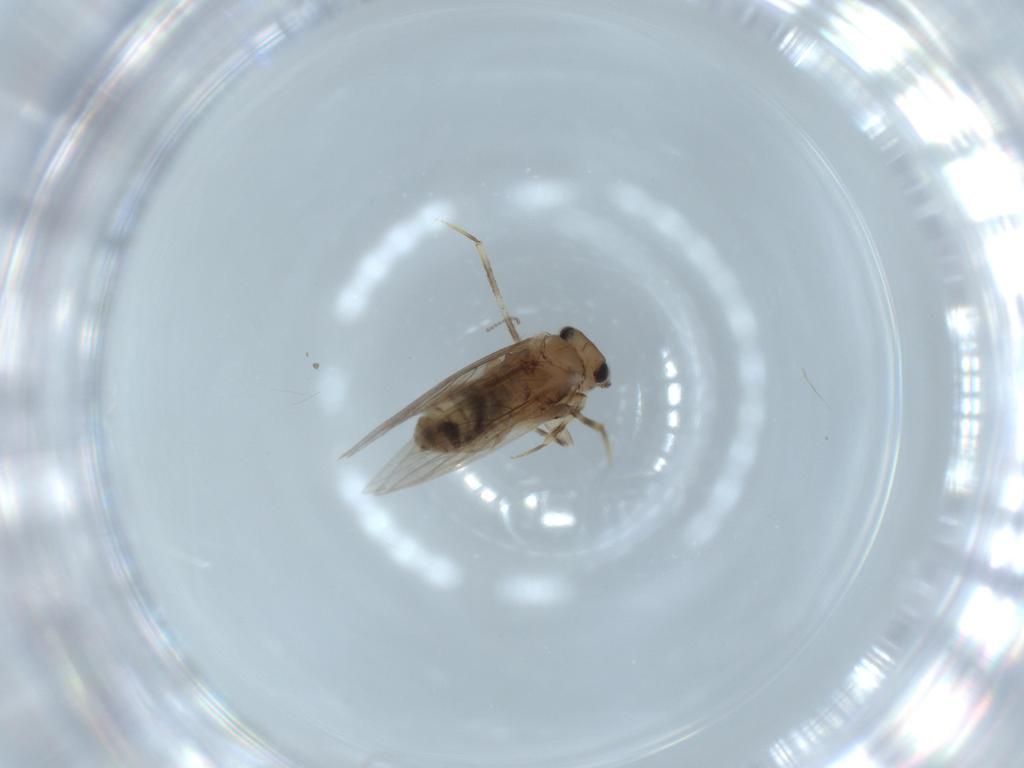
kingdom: Animalia
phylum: Arthropoda
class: Insecta
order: Psocodea
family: Lepidopsocidae
